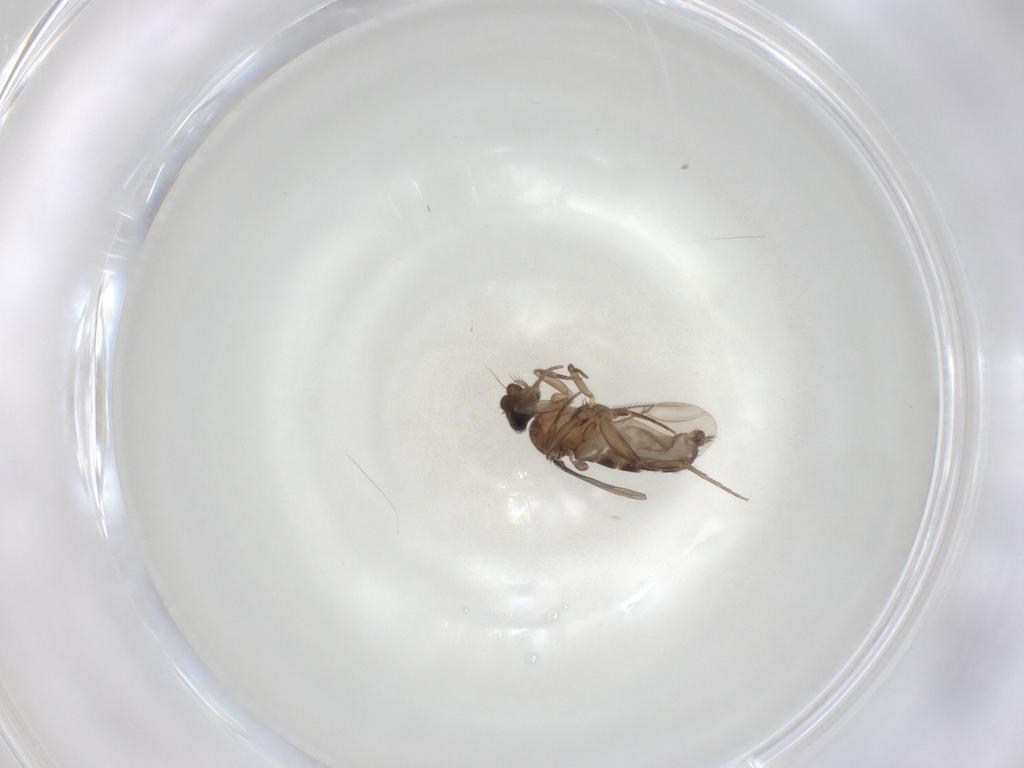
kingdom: Animalia
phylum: Arthropoda
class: Insecta
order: Diptera
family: Phoridae
